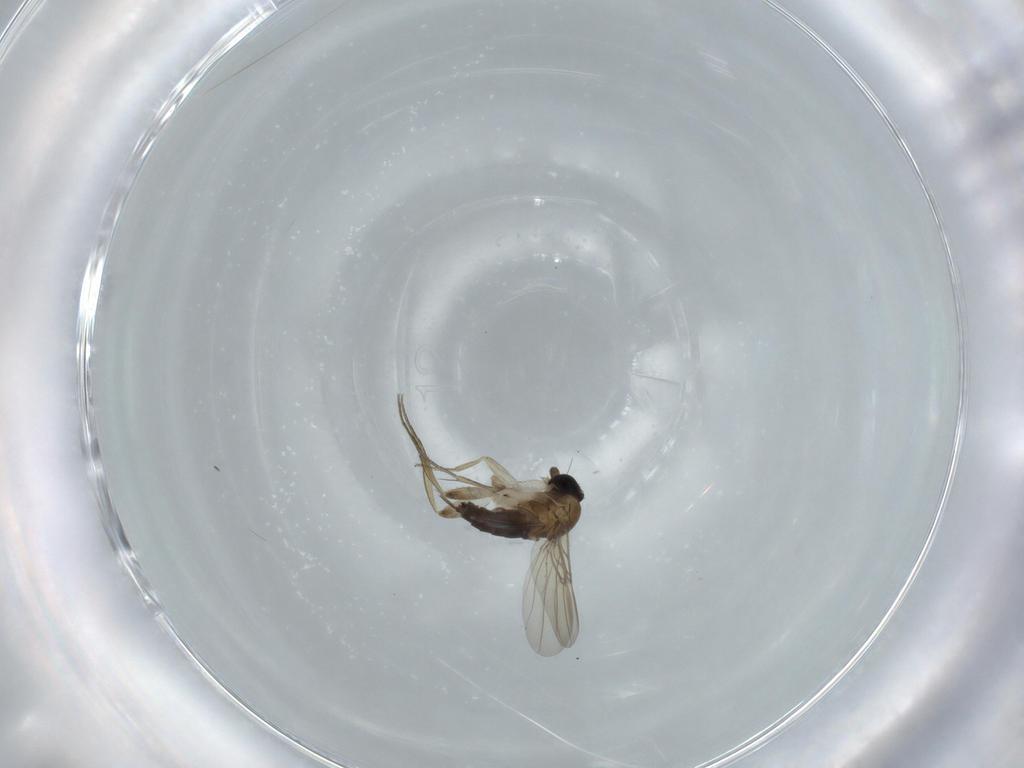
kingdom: Animalia
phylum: Arthropoda
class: Insecta
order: Diptera
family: Phoridae
